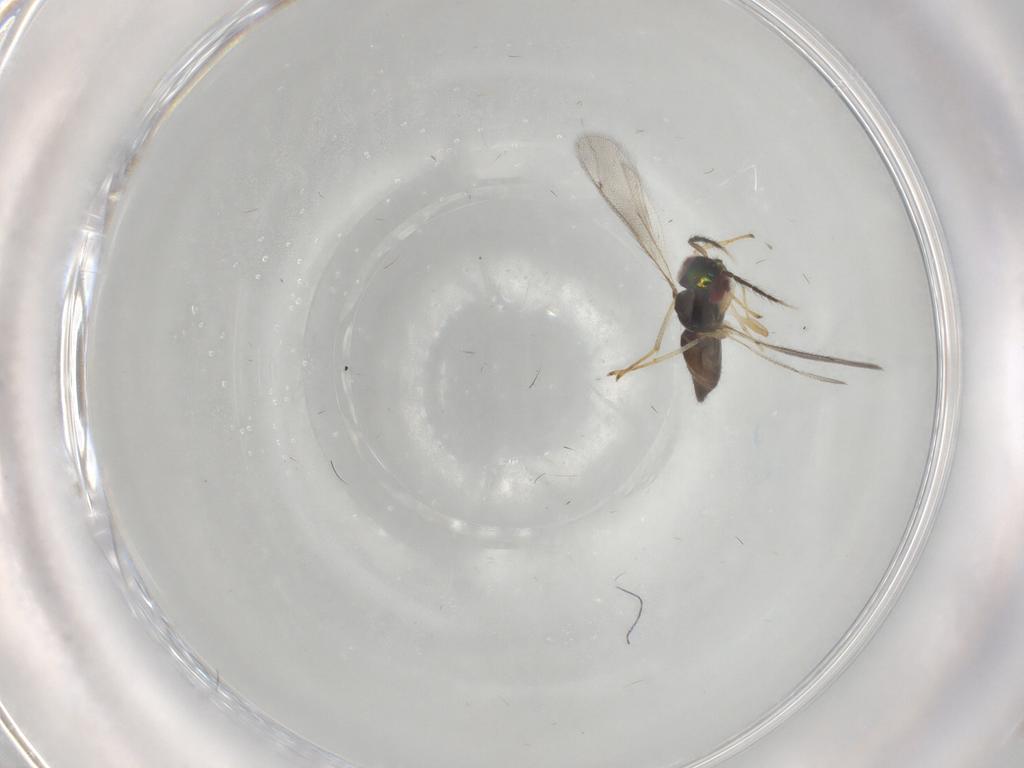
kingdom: Animalia
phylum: Arthropoda
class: Insecta
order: Hymenoptera
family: Eulophidae
